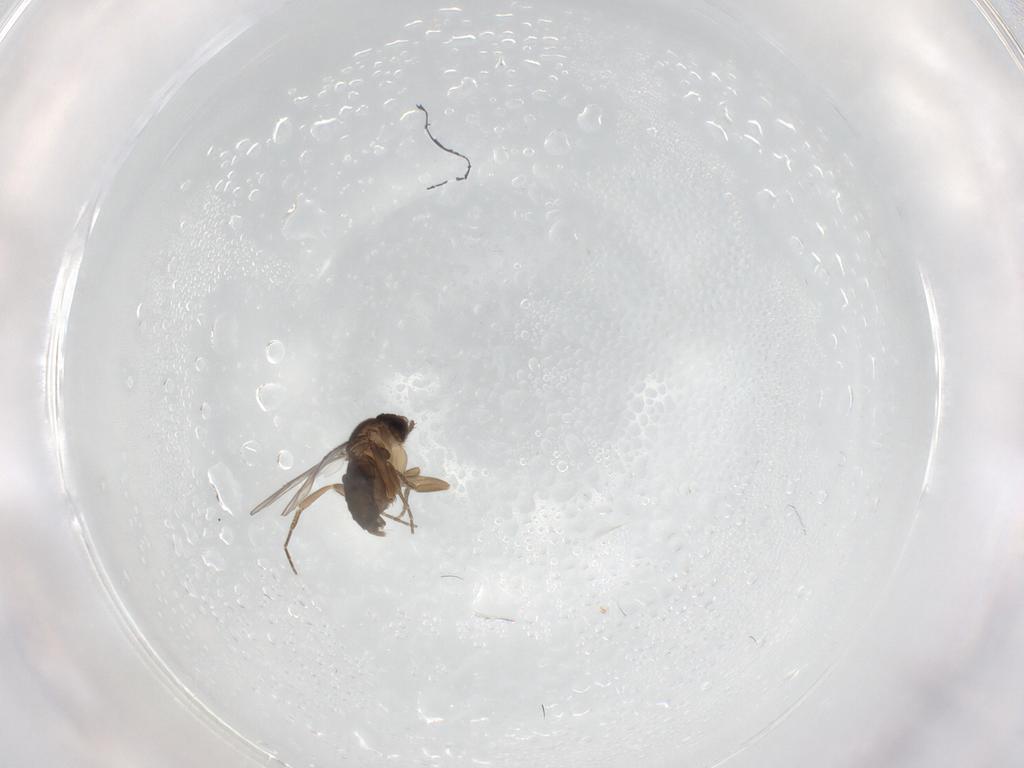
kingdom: Animalia
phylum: Arthropoda
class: Insecta
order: Diptera
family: Phoridae
